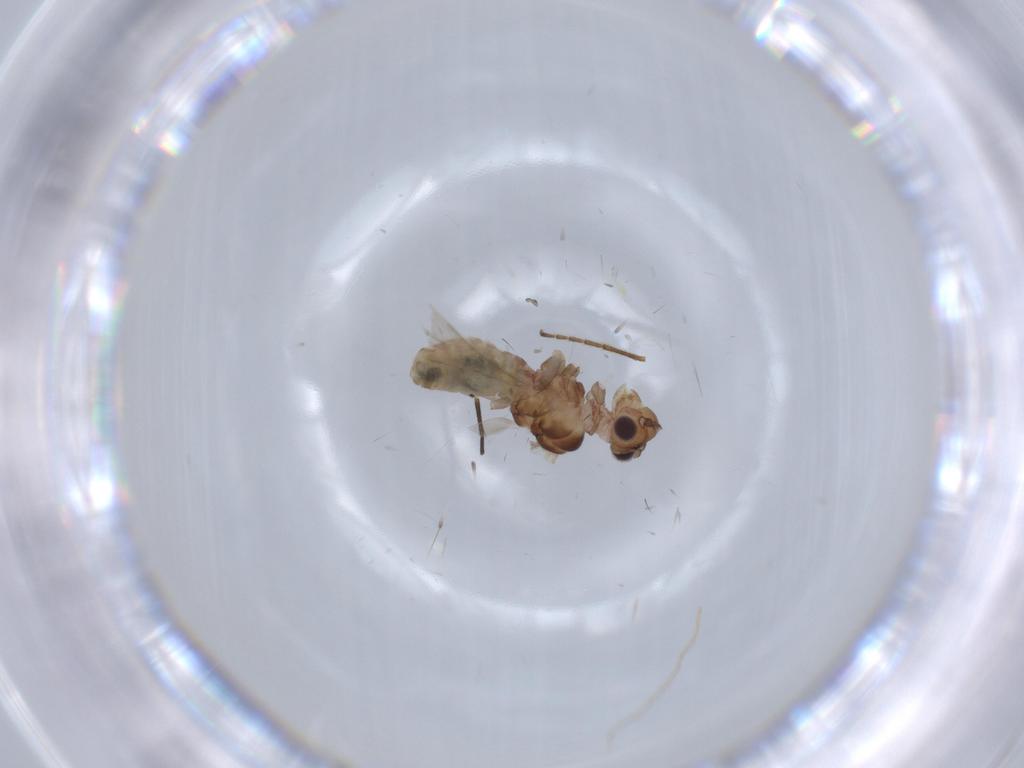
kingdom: Animalia
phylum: Arthropoda
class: Insecta
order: Psocodea
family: Caeciliusidae
